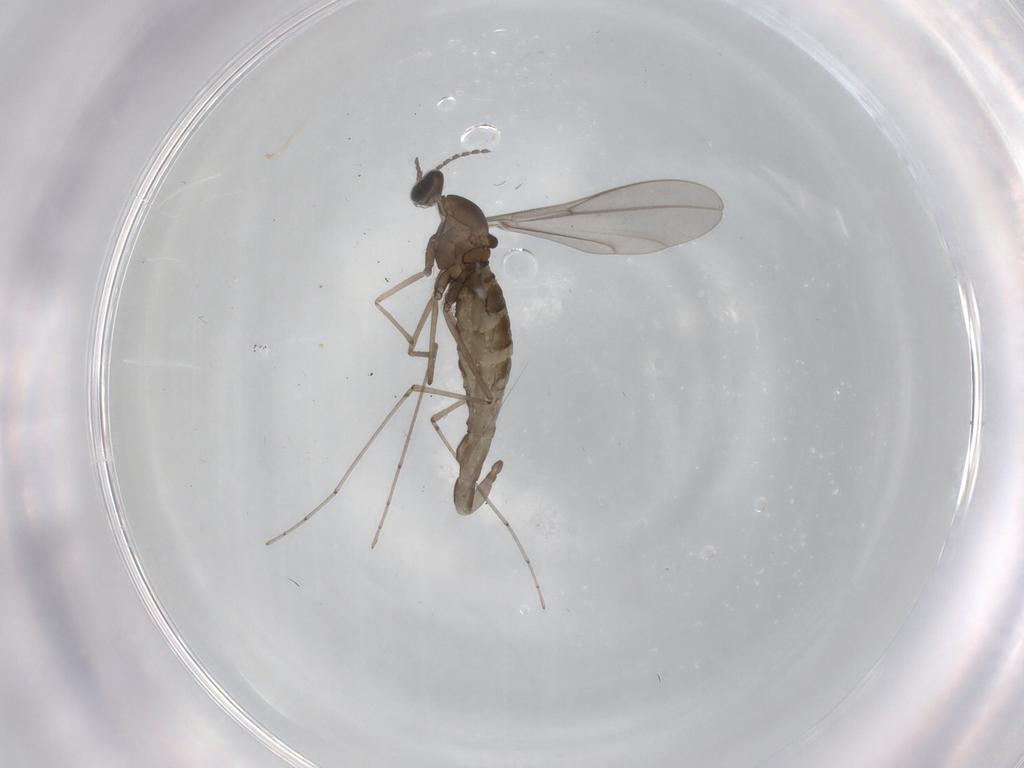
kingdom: Animalia
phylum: Arthropoda
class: Insecta
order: Diptera
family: Cecidomyiidae
